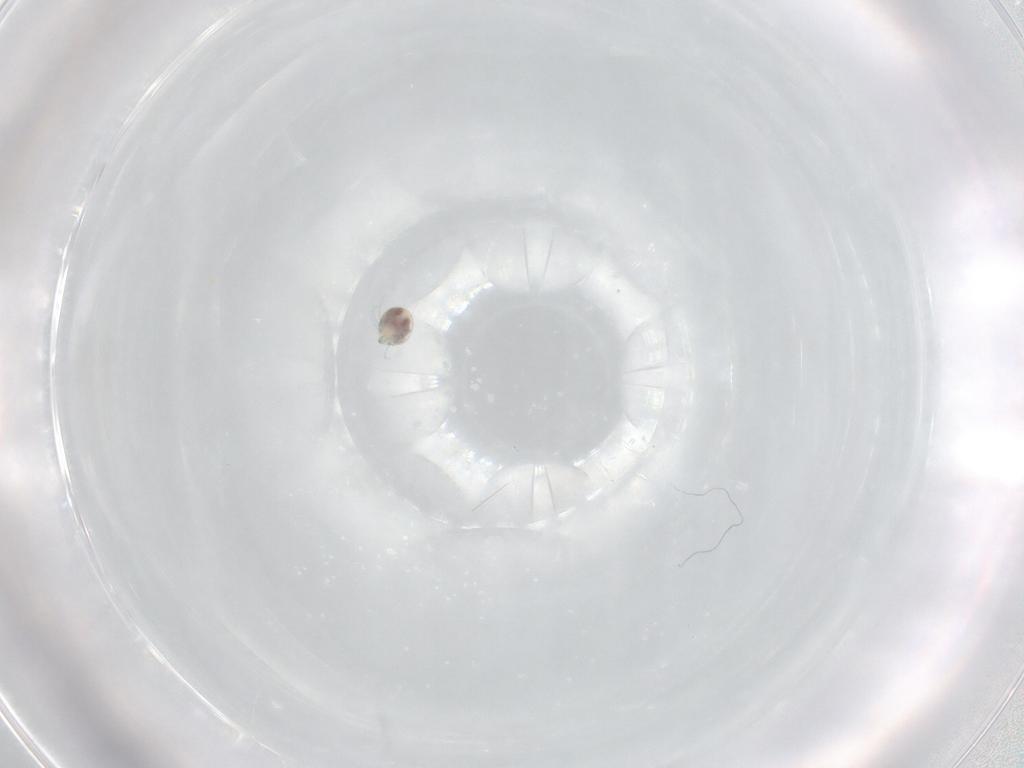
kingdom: Animalia
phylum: Arthropoda
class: Arachnida
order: Trombidiformes
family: Unionicolidae
